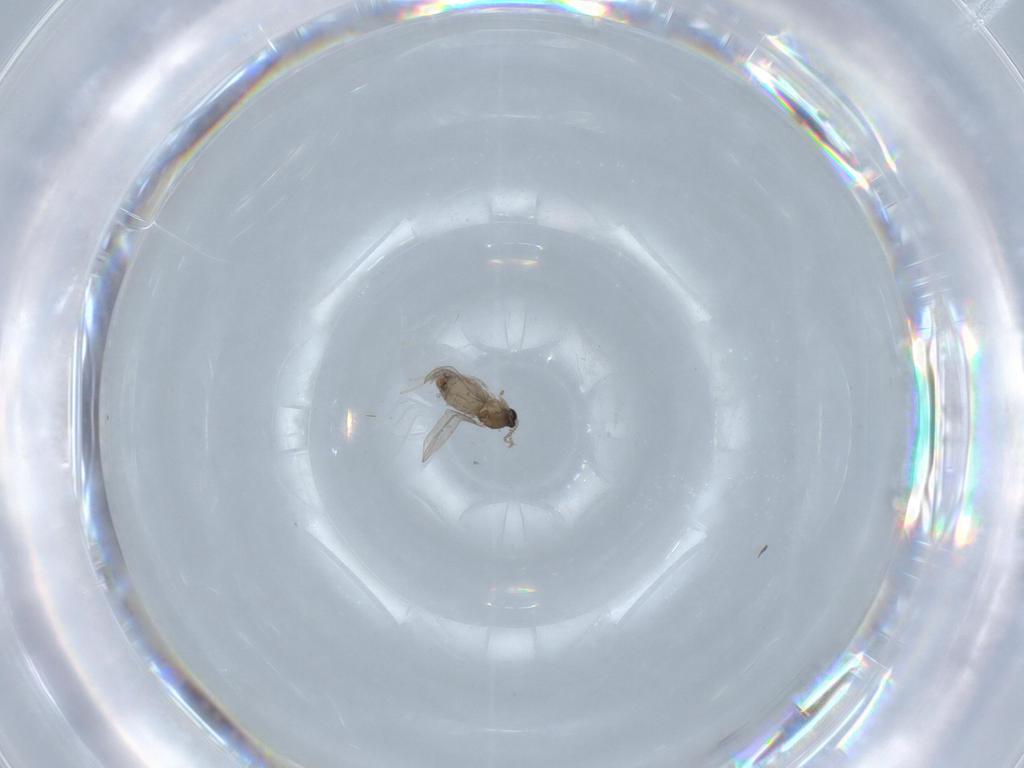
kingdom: Animalia
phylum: Arthropoda
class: Insecta
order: Diptera
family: Cecidomyiidae
